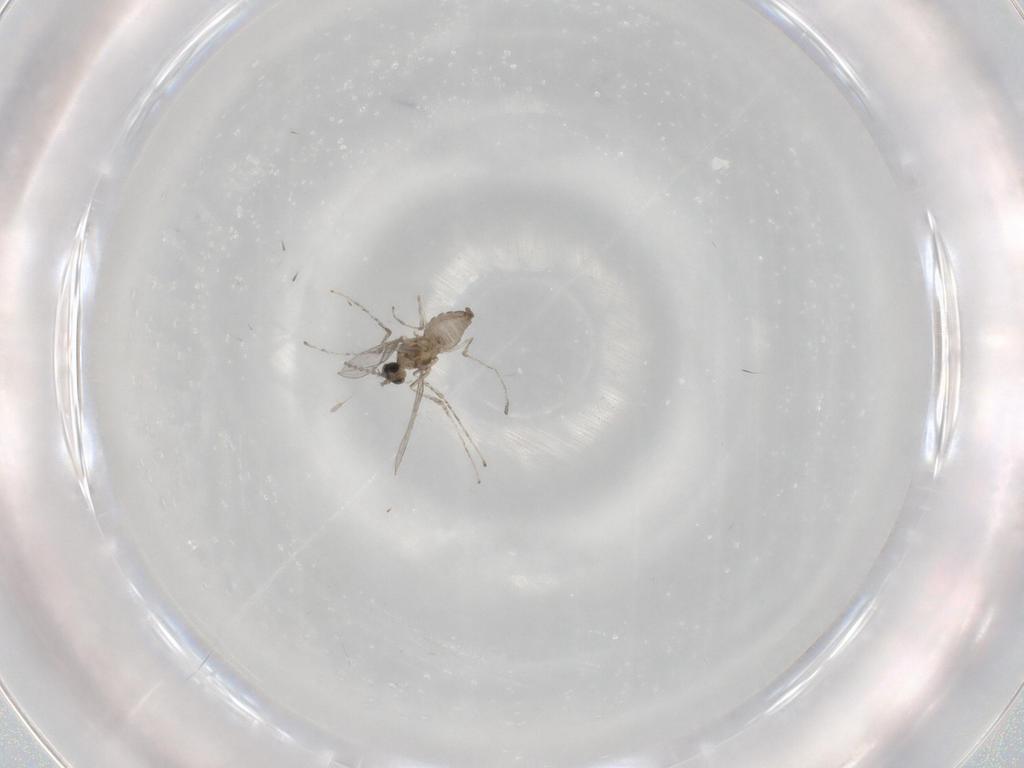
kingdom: Animalia
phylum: Arthropoda
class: Insecta
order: Diptera
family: Cecidomyiidae
